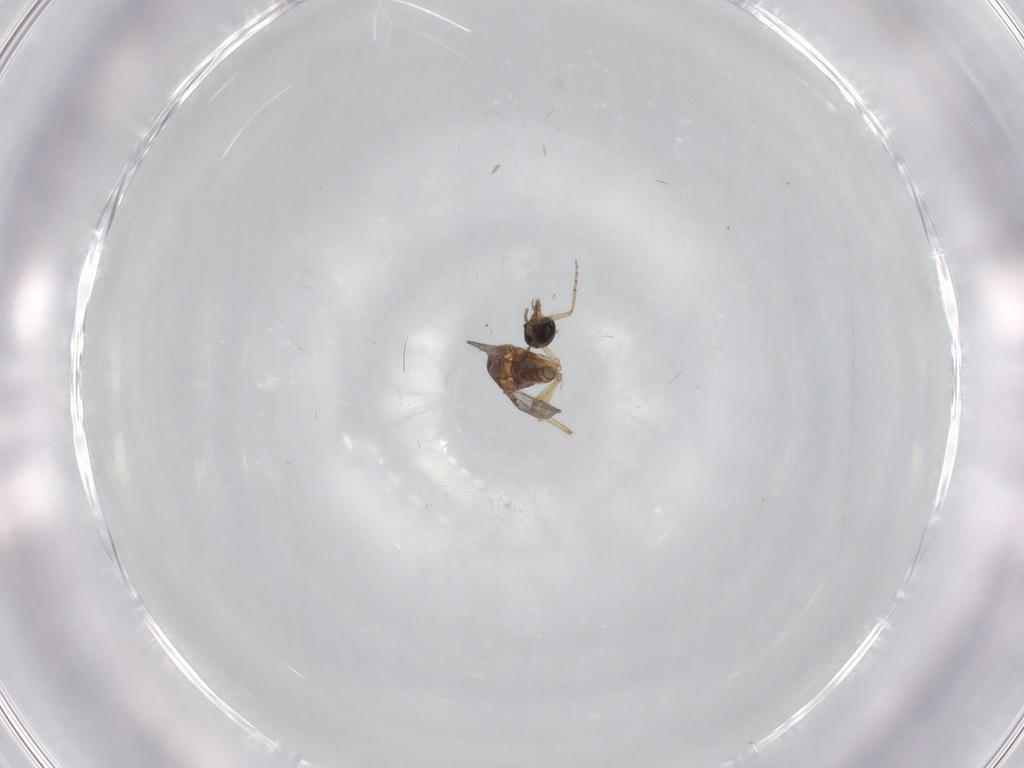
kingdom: Animalia
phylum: Arthropoda
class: Insecta
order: Diptera
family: Ceratopogonidae
